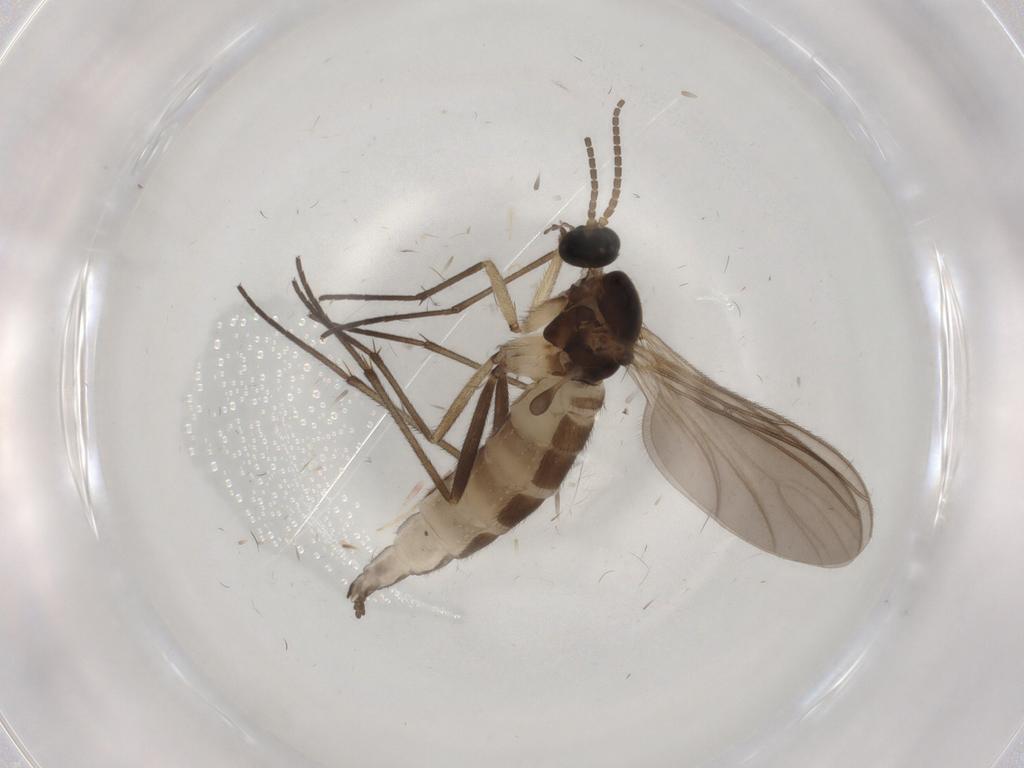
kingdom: Animalia
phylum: Arthropoda
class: Insecta
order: Diptera
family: Sciaridae
